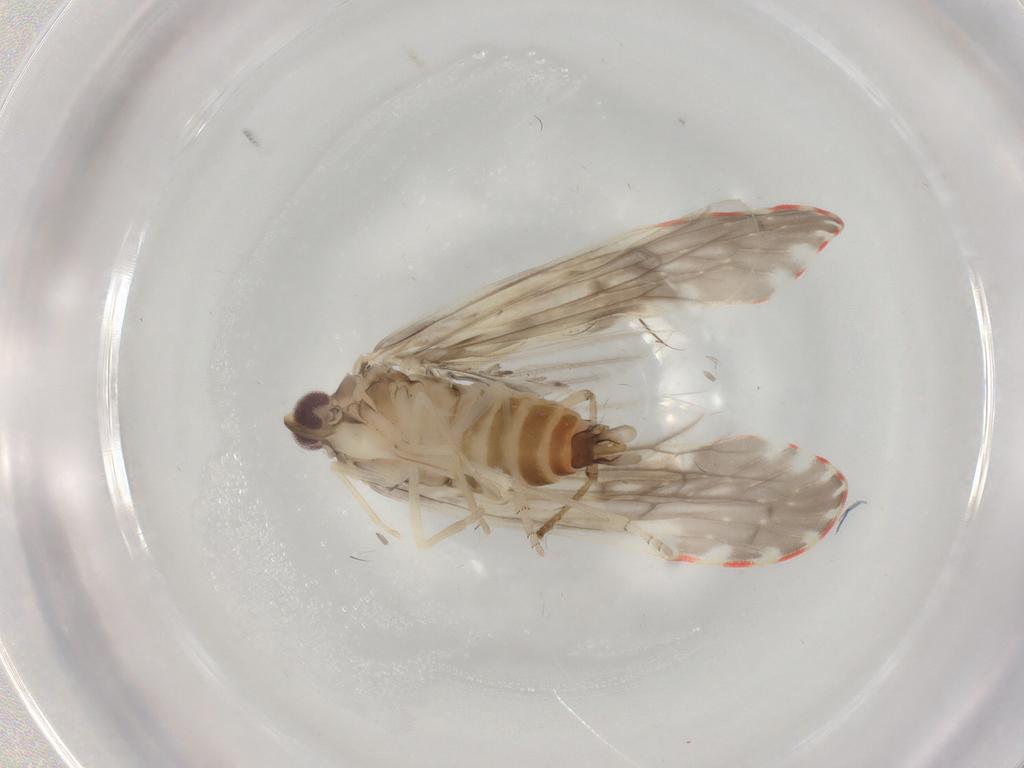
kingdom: Animalia
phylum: Arthropoda
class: Insecta
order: Hemiptera
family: Derbidae
